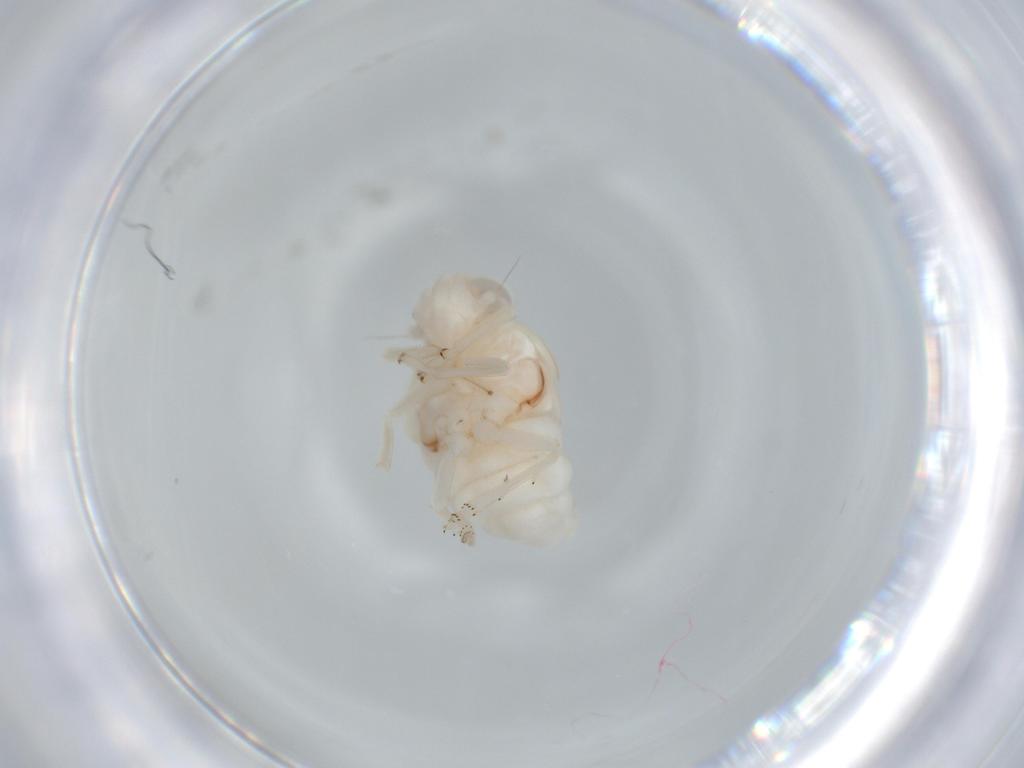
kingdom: Animalia
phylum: Arthropoda
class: Insecta
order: Hemiptera
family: Nogodinidae
